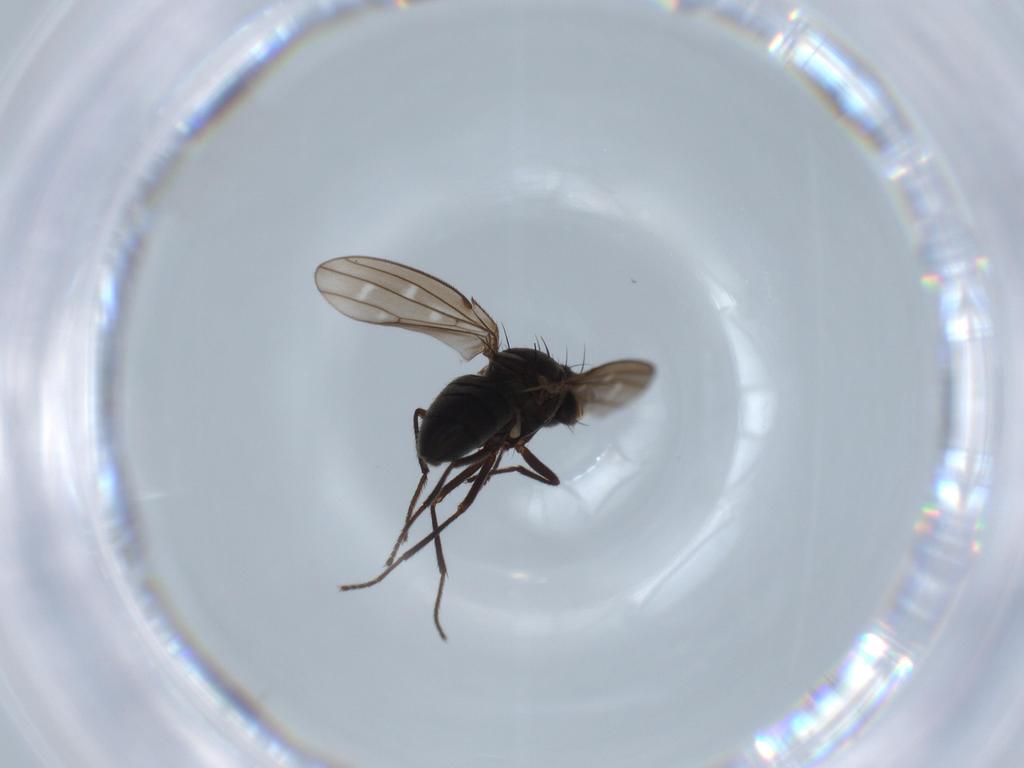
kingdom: Animalia
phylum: Arthropoda
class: Insecta
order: Diptera
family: Ephydridae
